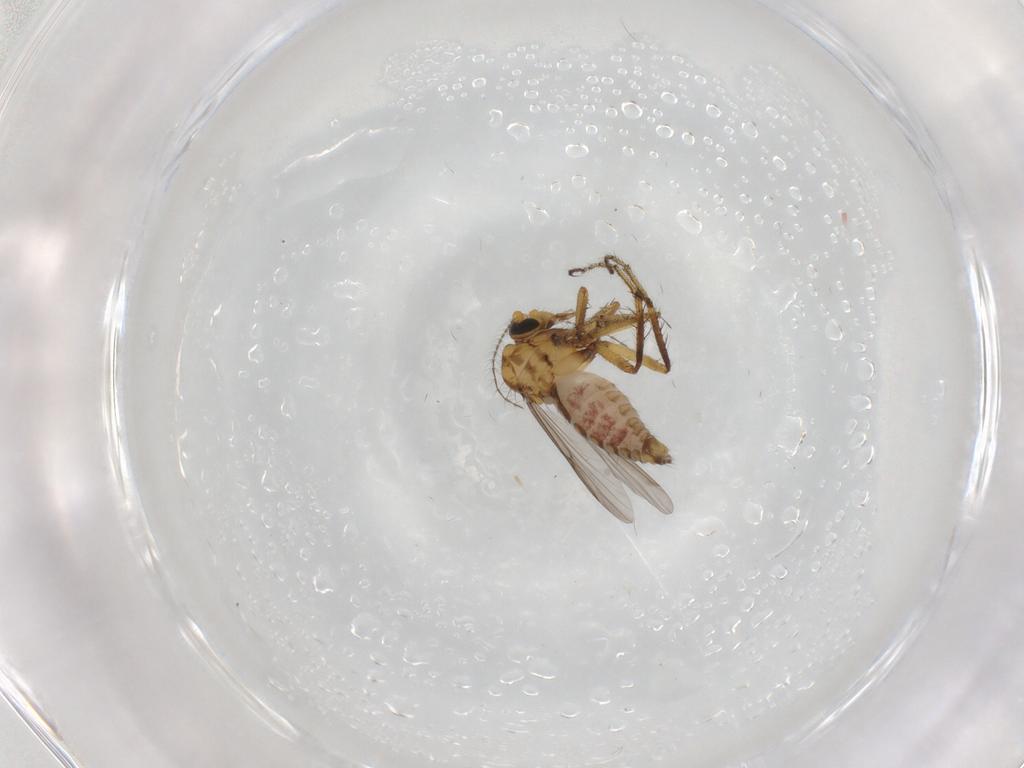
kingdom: Animalia
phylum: Arthropoda
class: Insecta
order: Diptera
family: Ceratopogonidae
